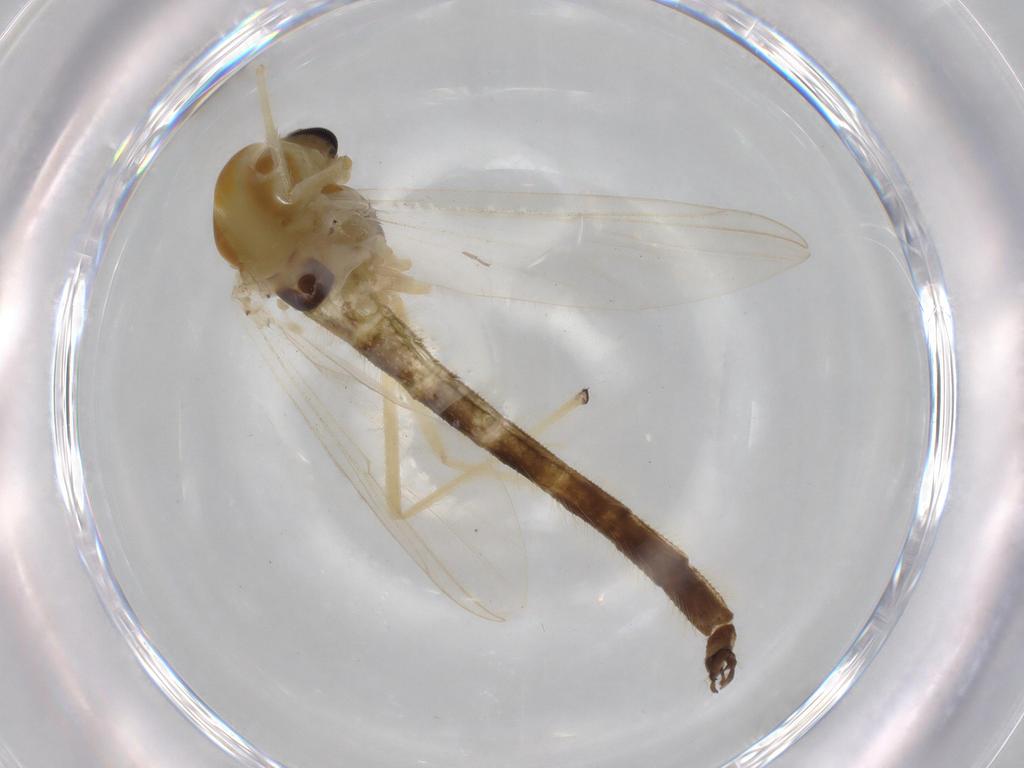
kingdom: Animalia
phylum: Arthropoda
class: Insecta
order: Diptera
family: Chironomidae
